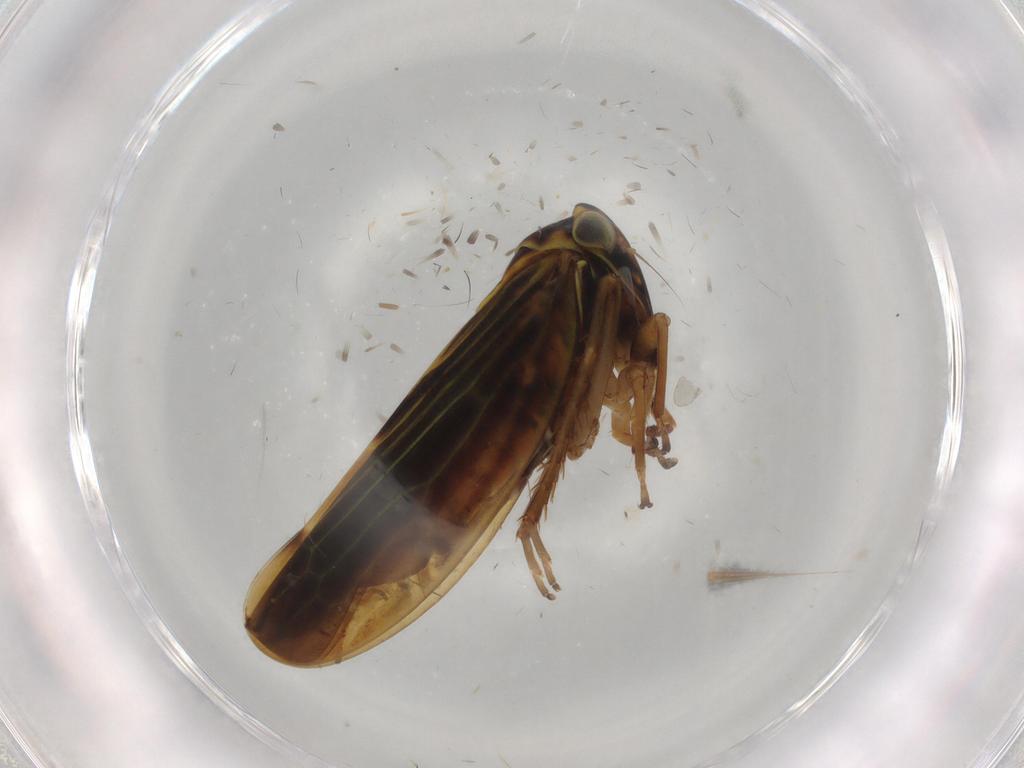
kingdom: Animalia
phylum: Arthropoda
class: Insecta
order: Hemiptera
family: Cicadellidae
